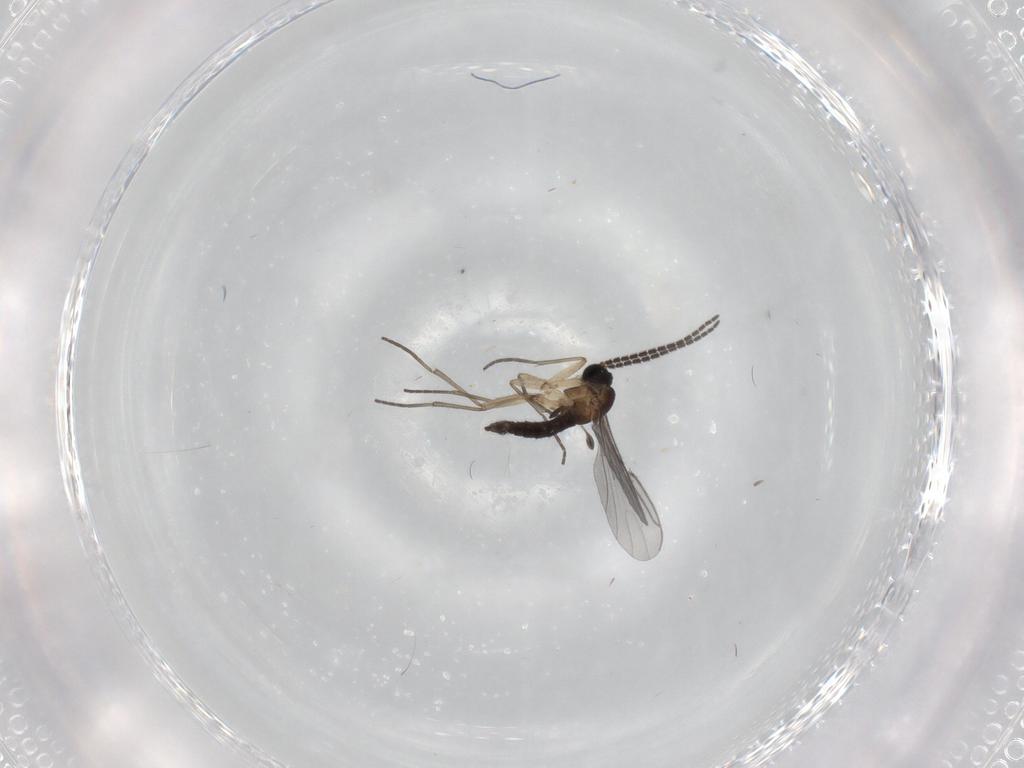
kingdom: Animalia
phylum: Arthropoda
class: Insecta
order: Diptera
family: Sciaridae
